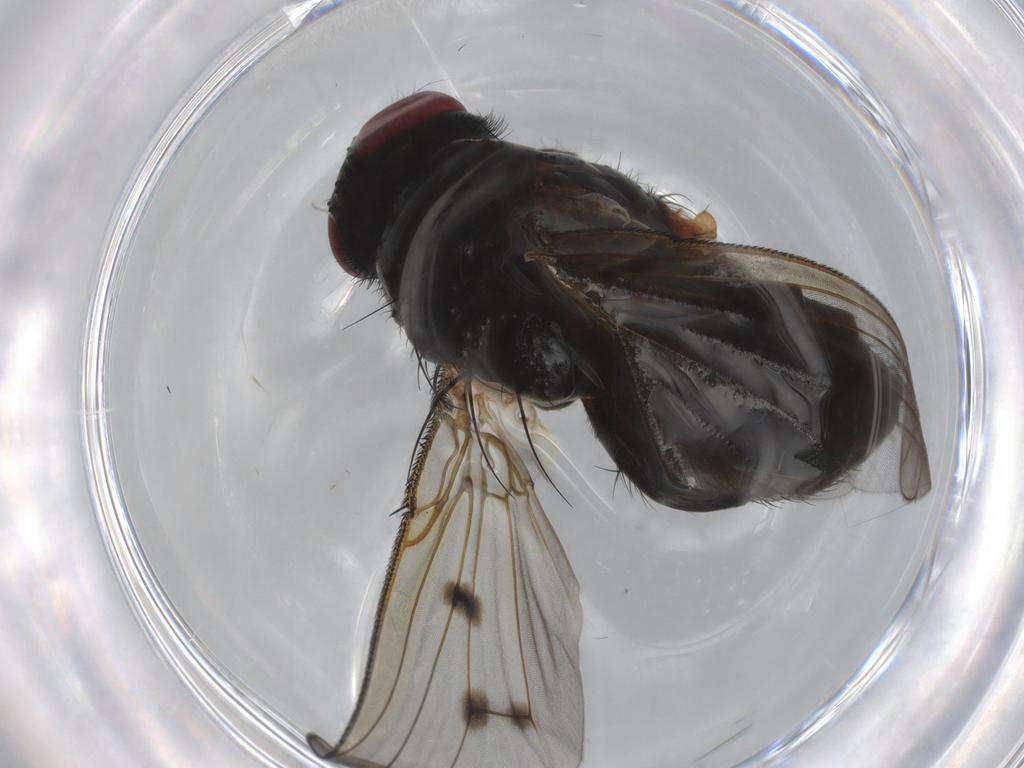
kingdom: Animalia
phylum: Arthropoda
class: Insecta
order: Diptera
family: Muscidae
